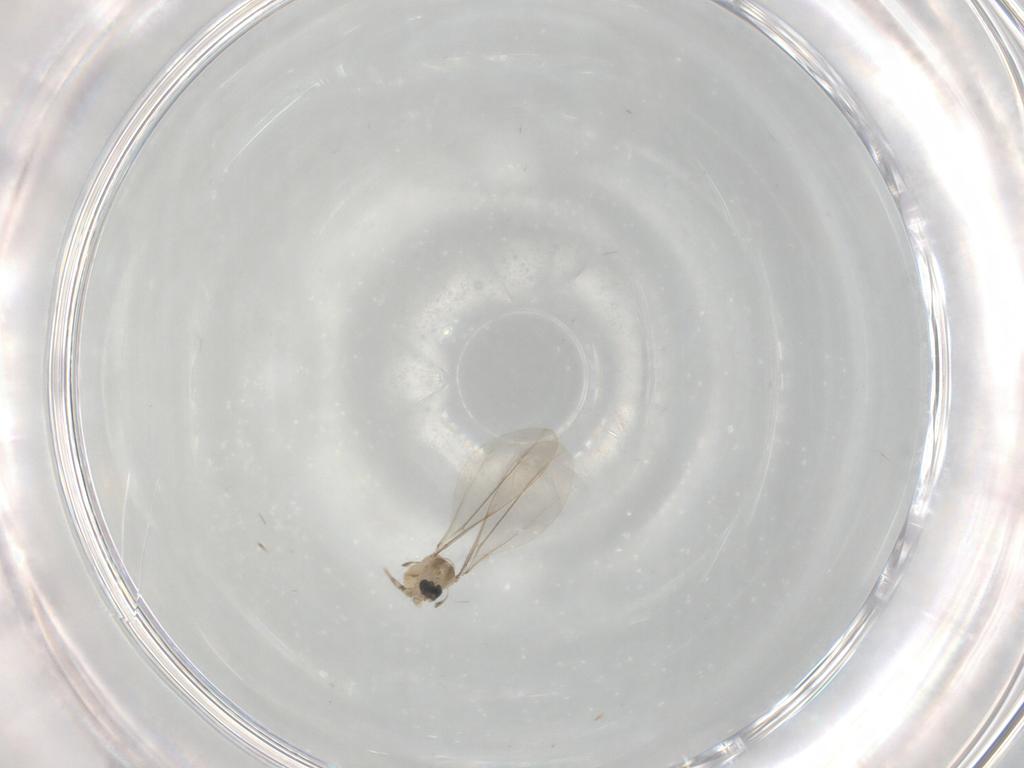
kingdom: Animalia
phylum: Arthropoda
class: Insecta
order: Diptera
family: Cecidomyiidae
